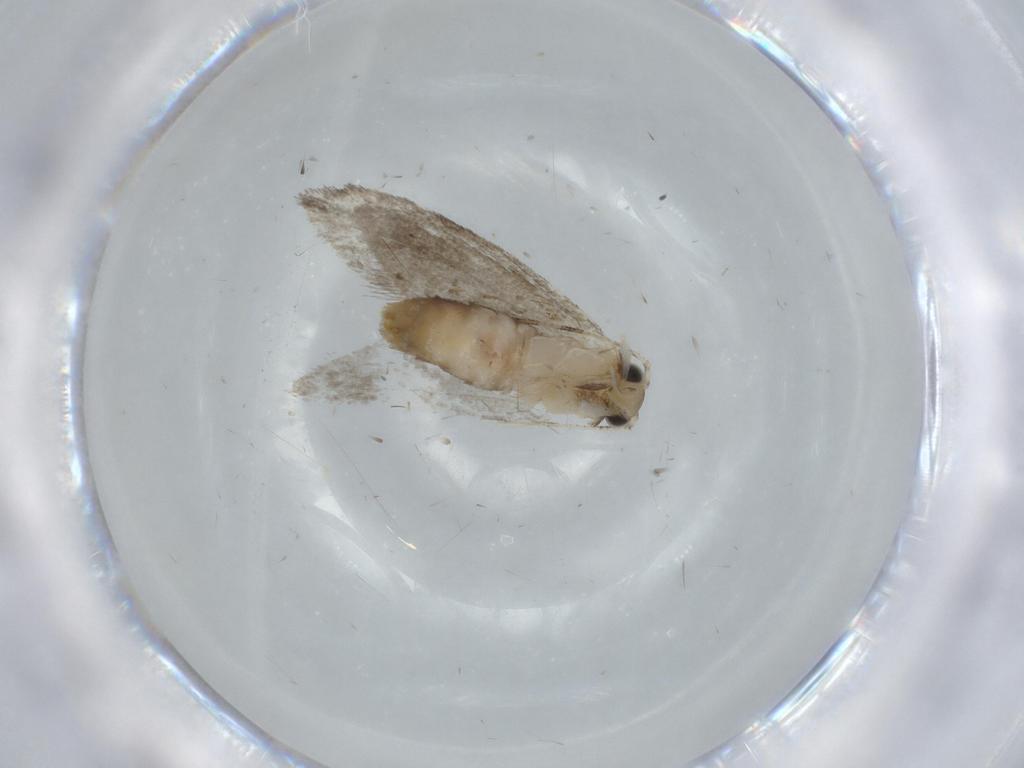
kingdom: Animalia
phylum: Arthropoda
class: Insecta
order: Lepidoptera
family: Tineidae
